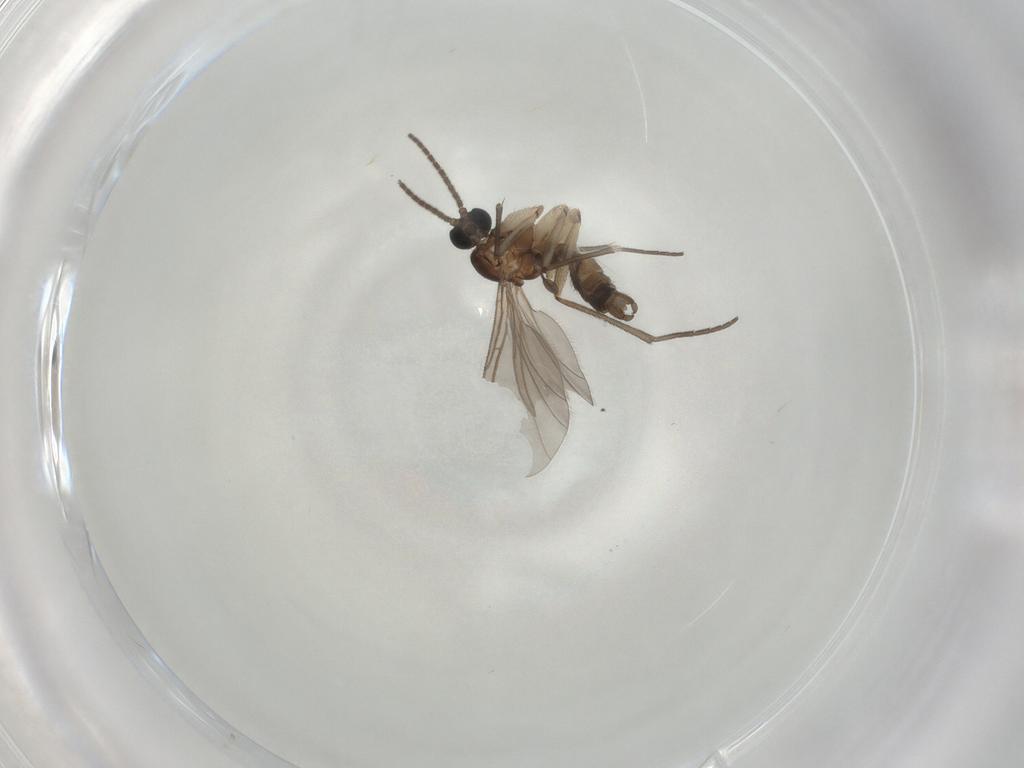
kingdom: Animalia
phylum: Arthropoda
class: Insecta
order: Diptera
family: Sciaridae
